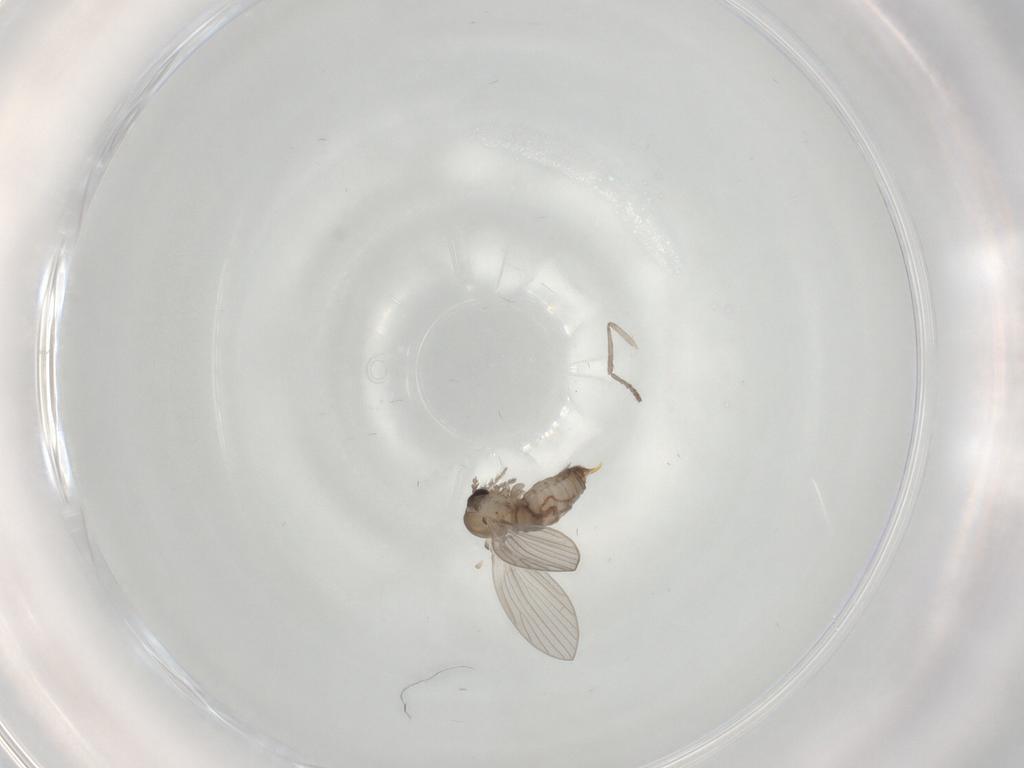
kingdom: Animalia
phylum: Arthropoda
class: Insecta
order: Diptera
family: Psychodidae
